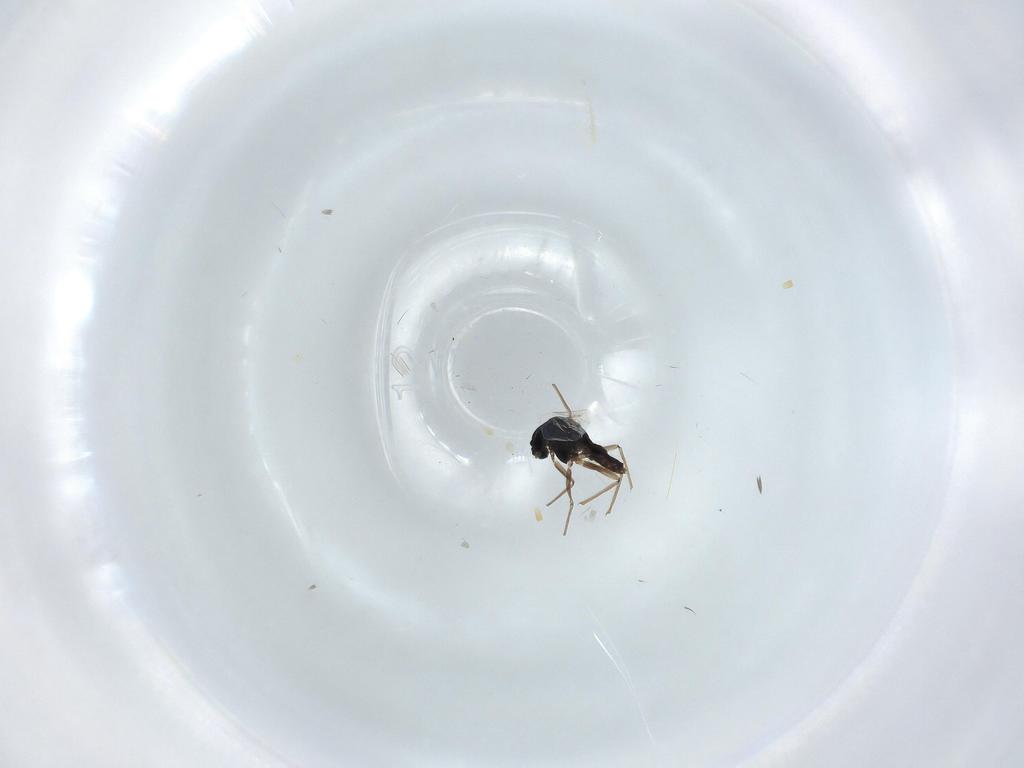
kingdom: Animalia
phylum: Arthropoda
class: Insecta
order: Diptera
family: Chironomidae
